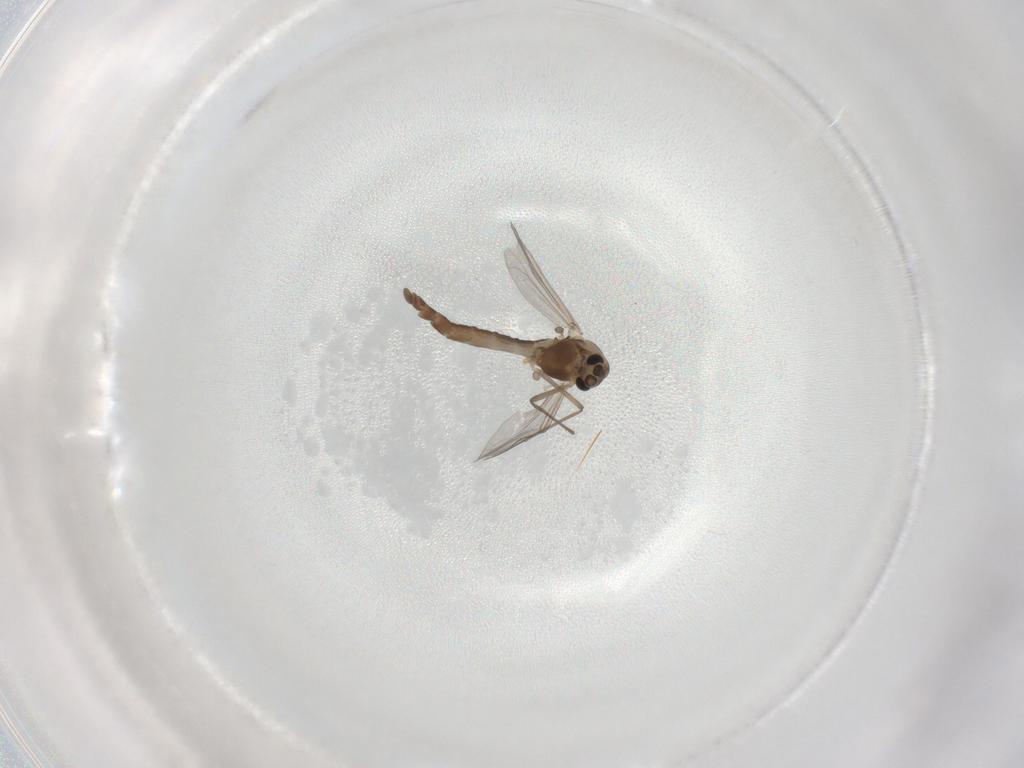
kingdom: Animalia
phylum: Arthropoda
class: Insecta
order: Diptera
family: Chironomidae
